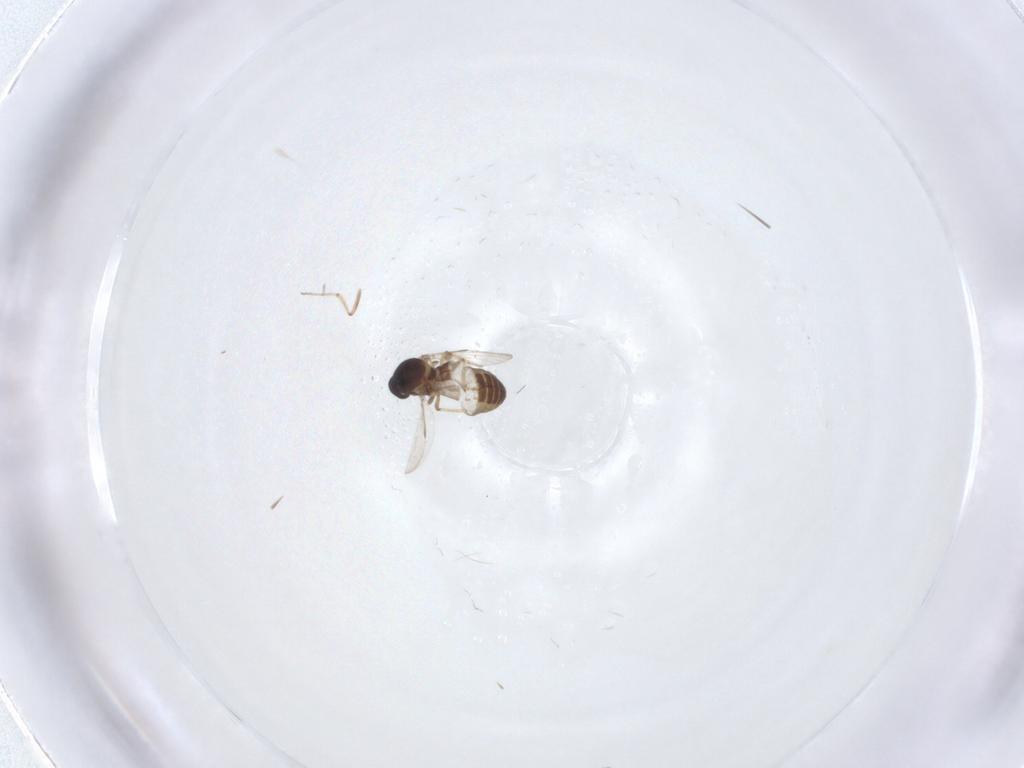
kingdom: Animalia
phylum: Arthropoda
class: Insecta
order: Diptera
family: Ceratopogonidae
